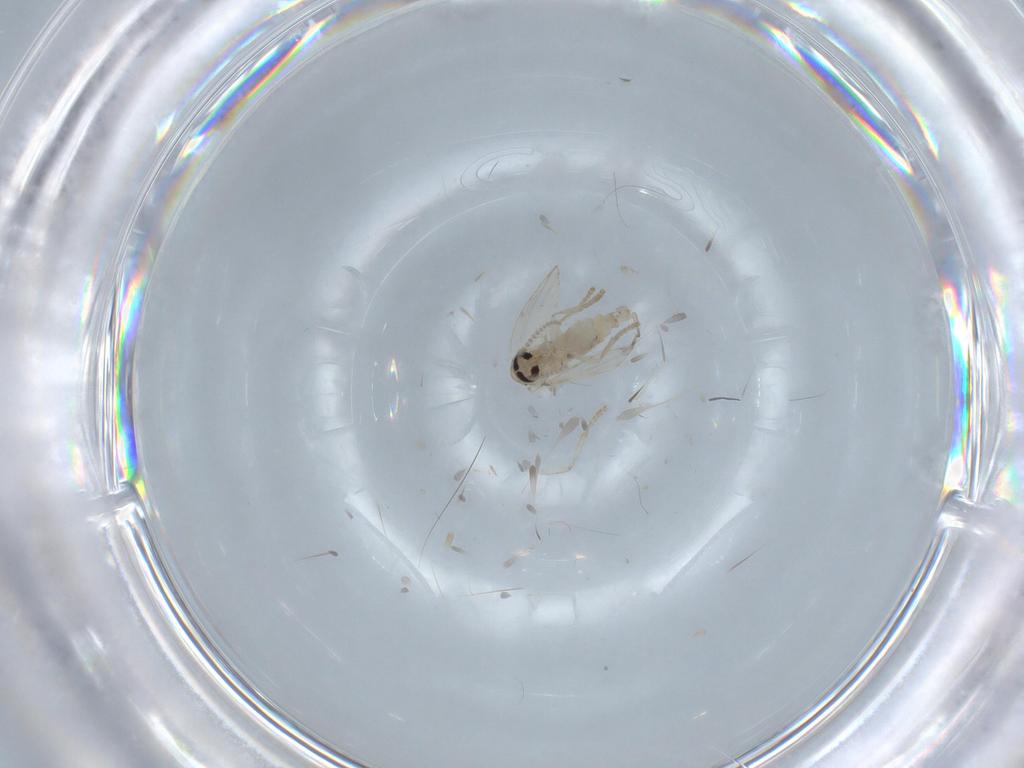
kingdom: Animalia
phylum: Arthropoda
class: Insecta
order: Diptera
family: Psychodidae
